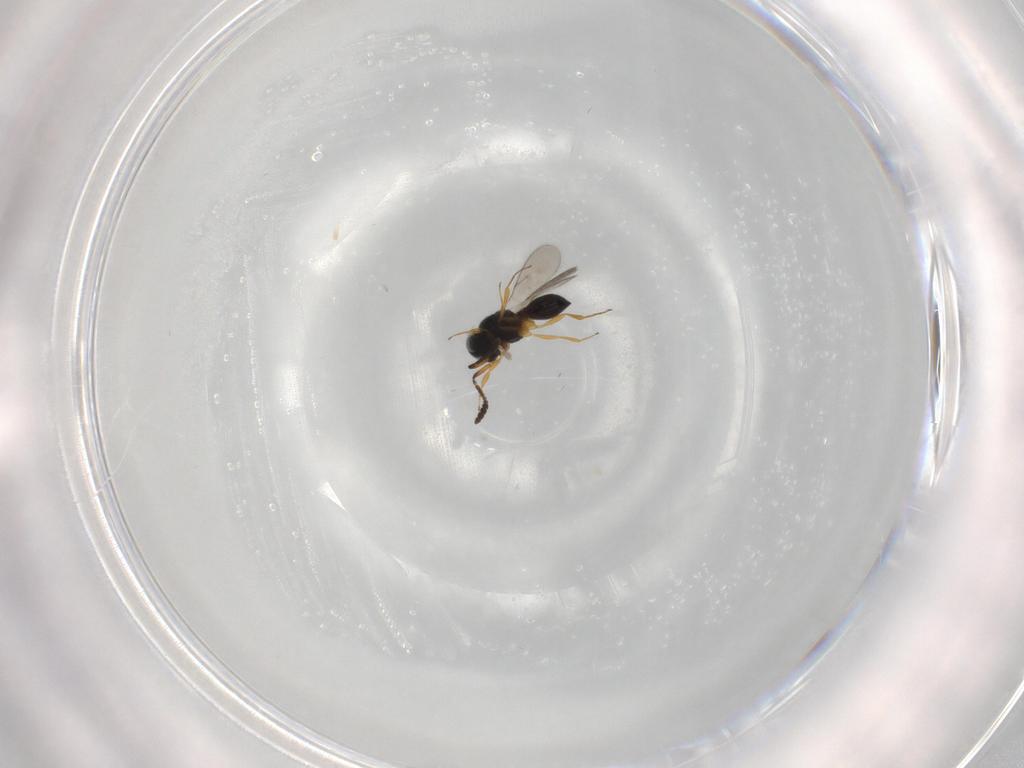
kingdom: Animalia
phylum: Arthropoda
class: Insecta
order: Hymenoptera
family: Scelionidae
